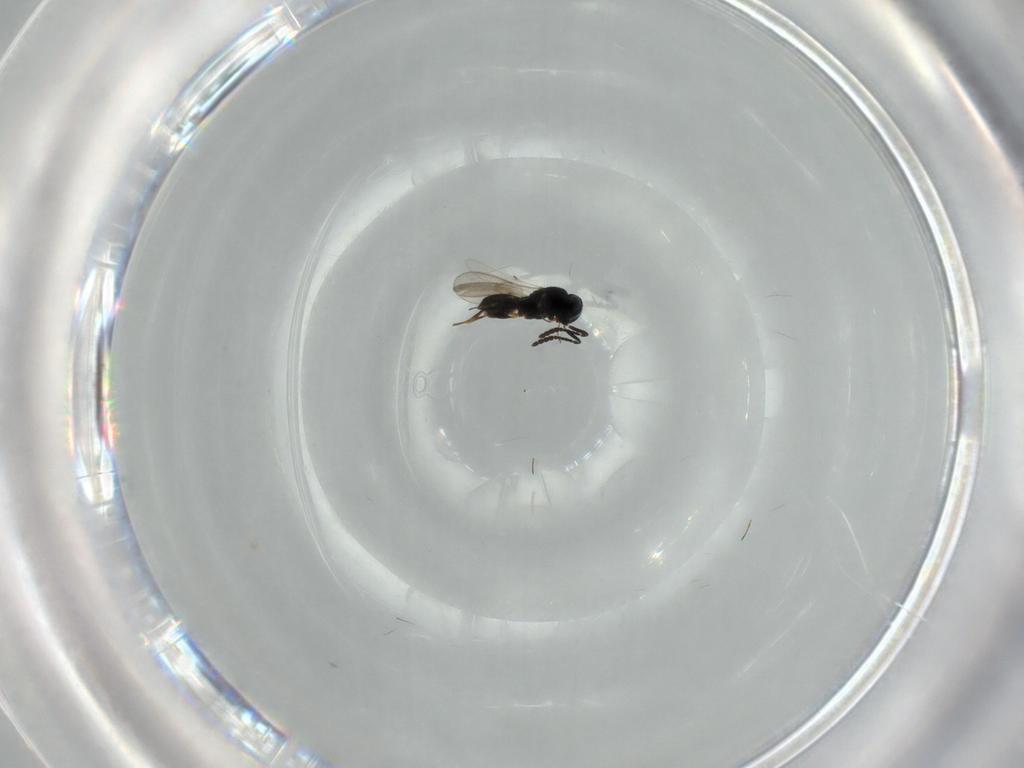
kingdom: Animalia
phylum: Arthropoda
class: Insecta
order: Hymenoptera
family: Scelionidae
